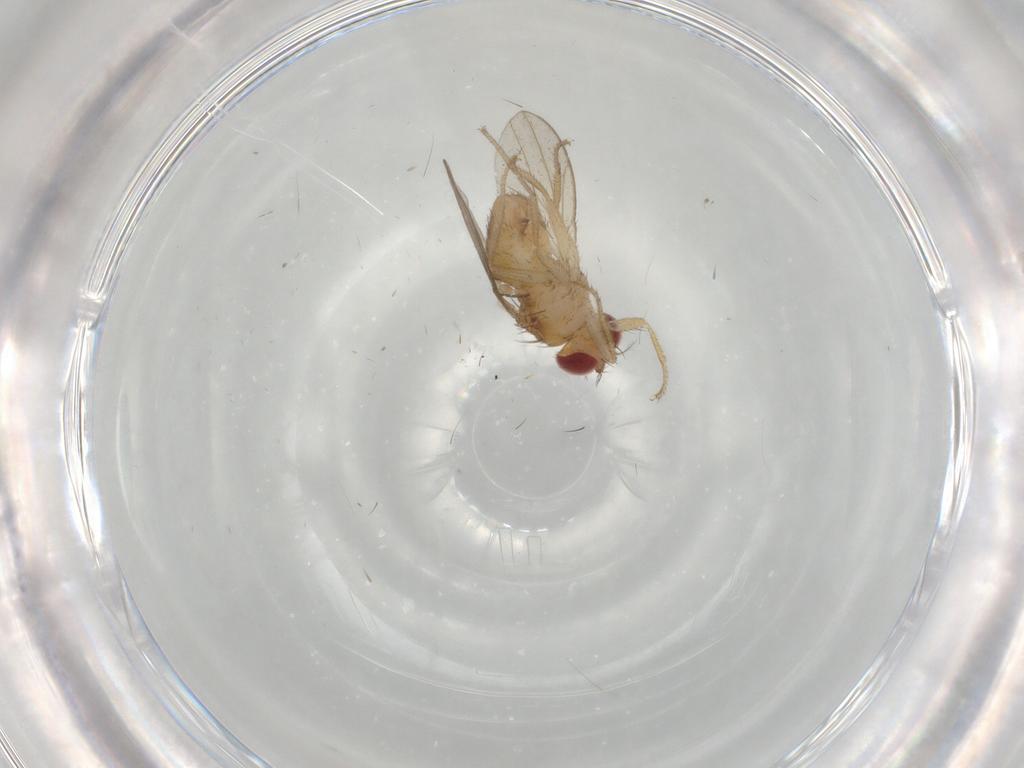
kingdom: Animalia
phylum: Arthropoda
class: Insecta
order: Diptera
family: Drosophilidae
